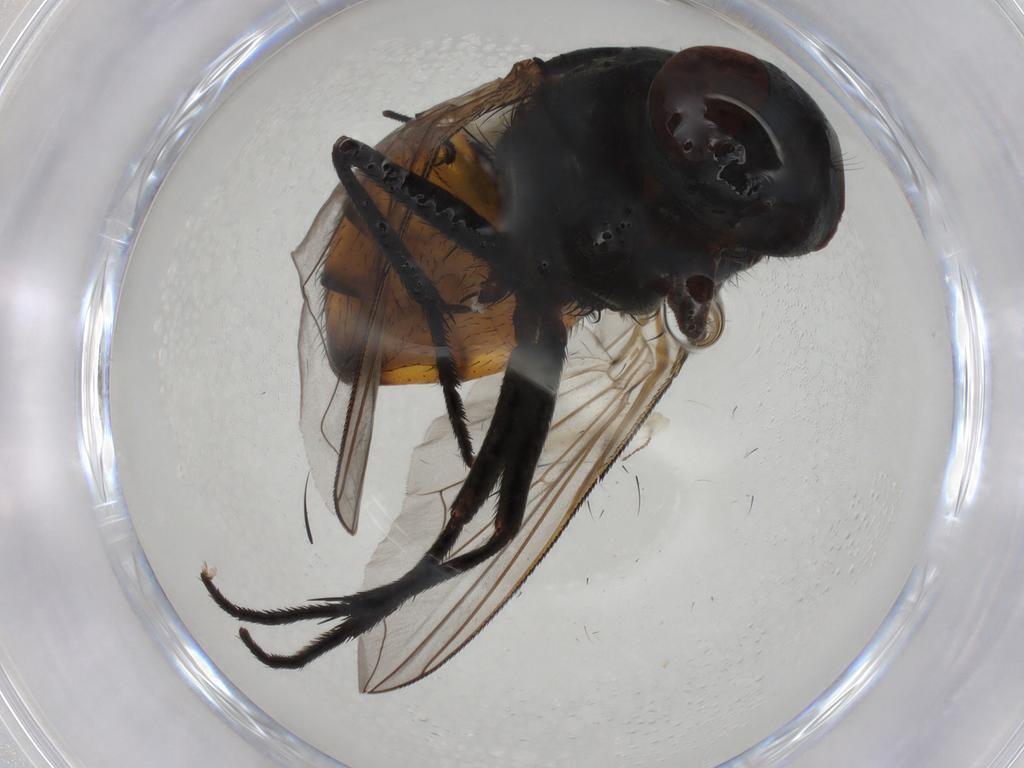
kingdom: Animalia
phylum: Arthropoda
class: Insecta
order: Diptera
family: Muscidae
